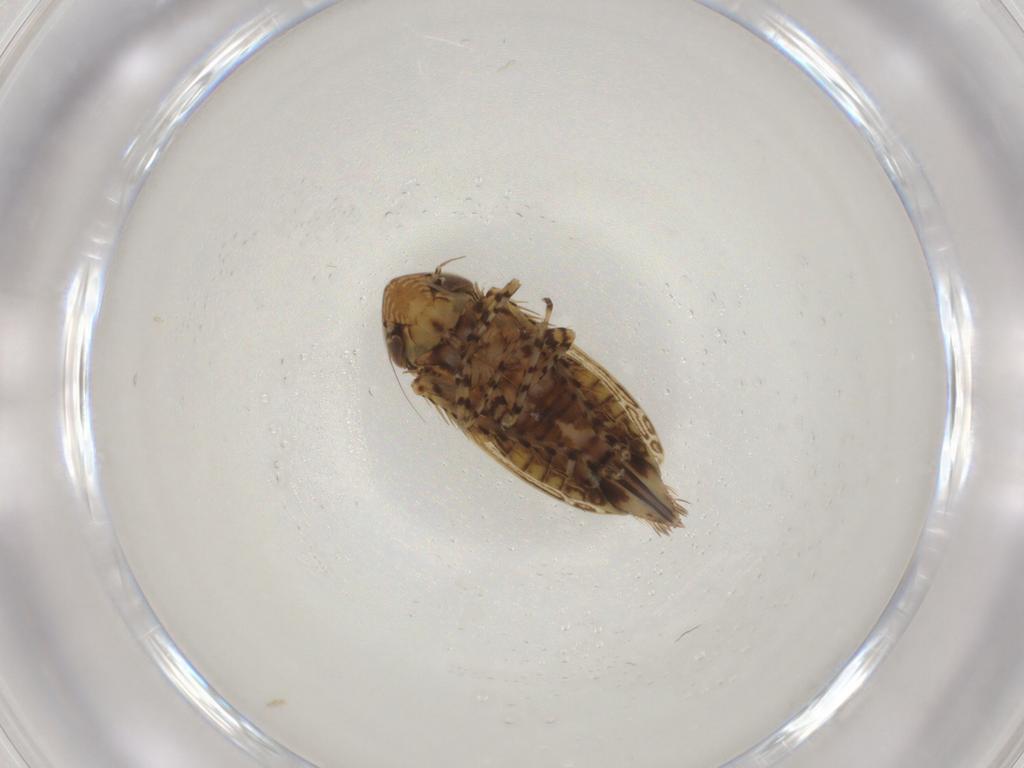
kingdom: Animalia
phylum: Arthropoda
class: Insecta
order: Hemiptera
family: Cicadellidae
